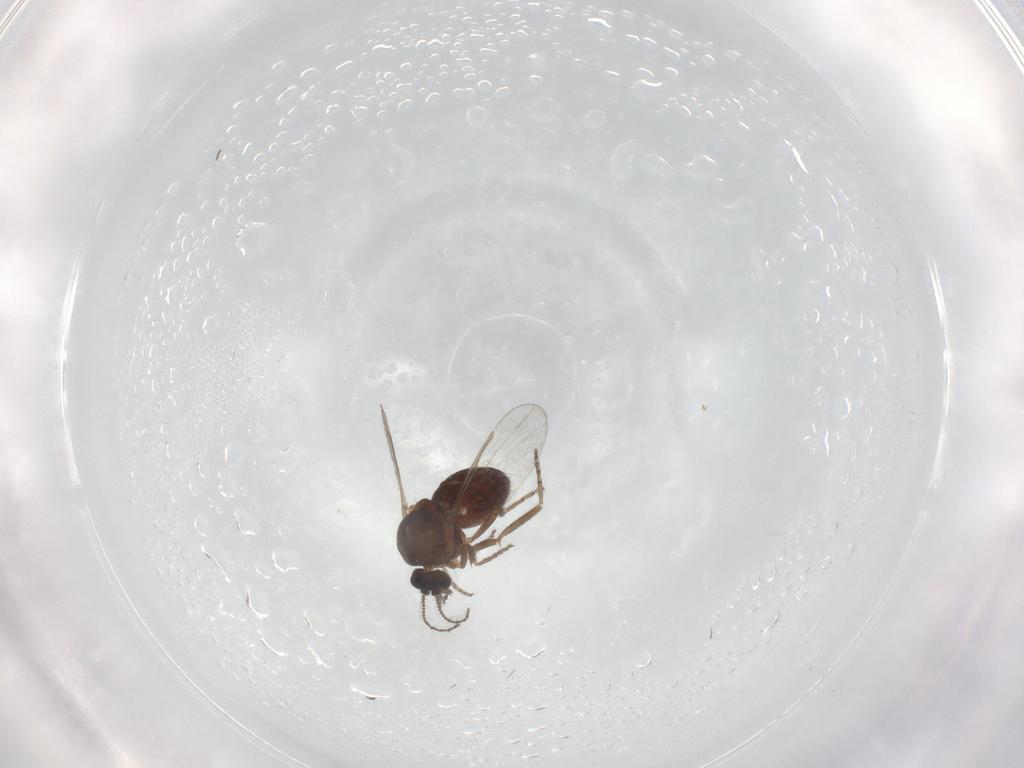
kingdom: Animalia
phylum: Arthropoda
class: Insecta
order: Diptera
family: Ceratopogonidae
